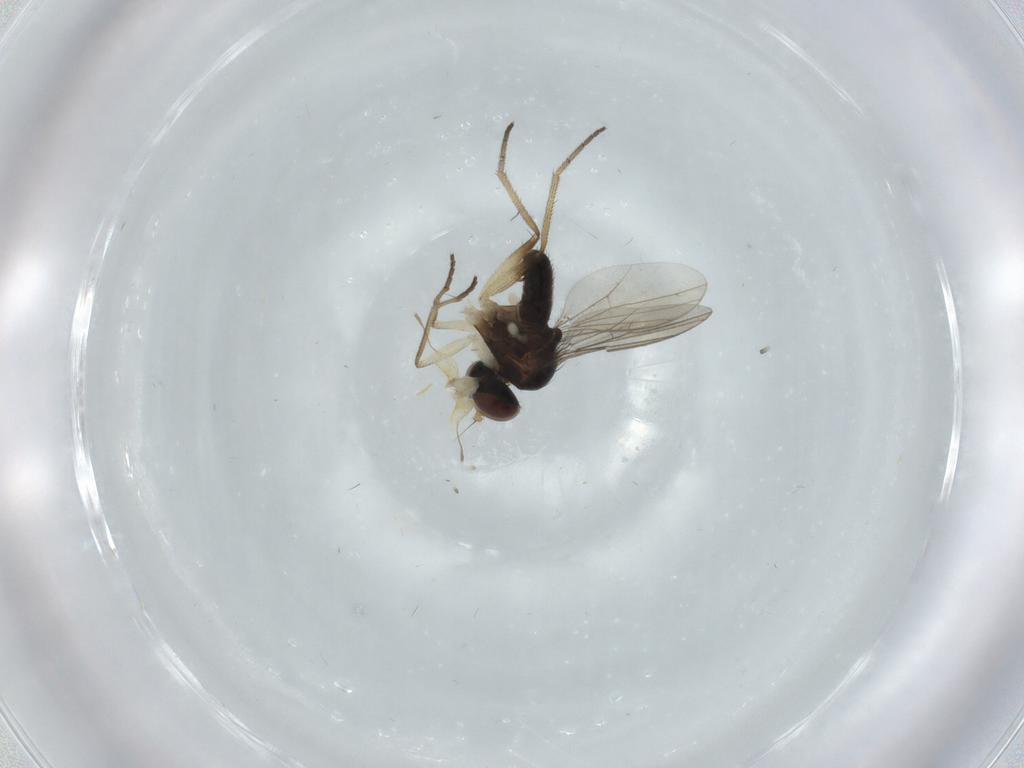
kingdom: Animalia
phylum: Arthropoda
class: Insecta
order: Diptera
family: Dolichopodidae
